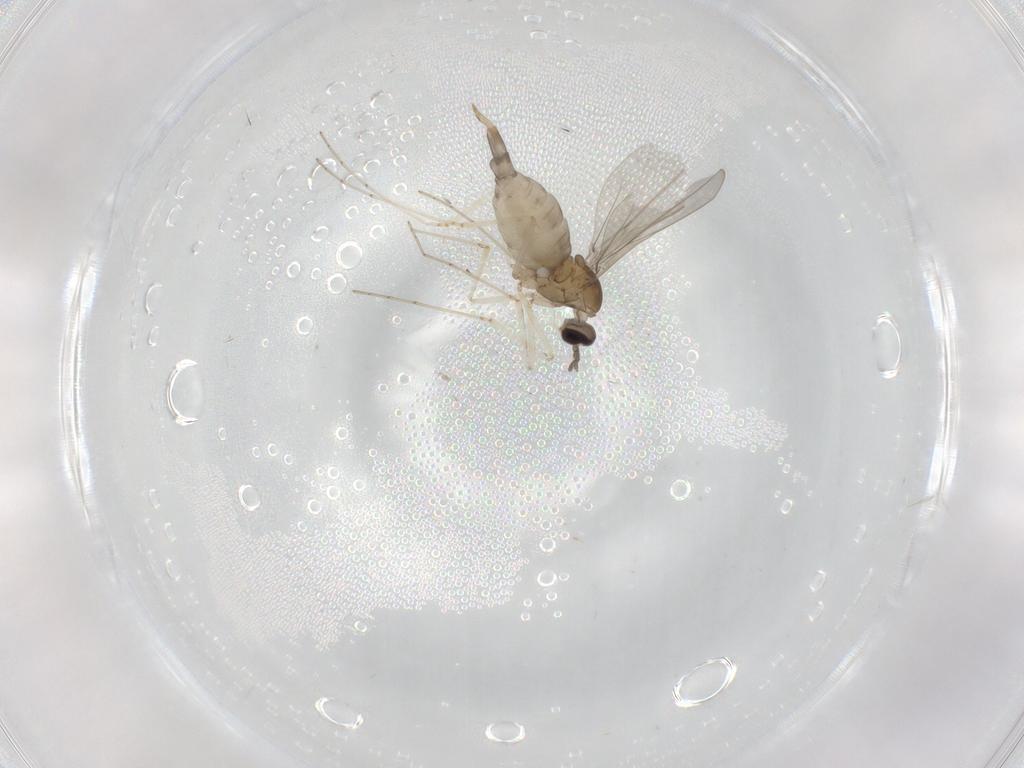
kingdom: Animalia
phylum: Arthropoda
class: Insecta
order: Diptera
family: Cecidomyiidae
